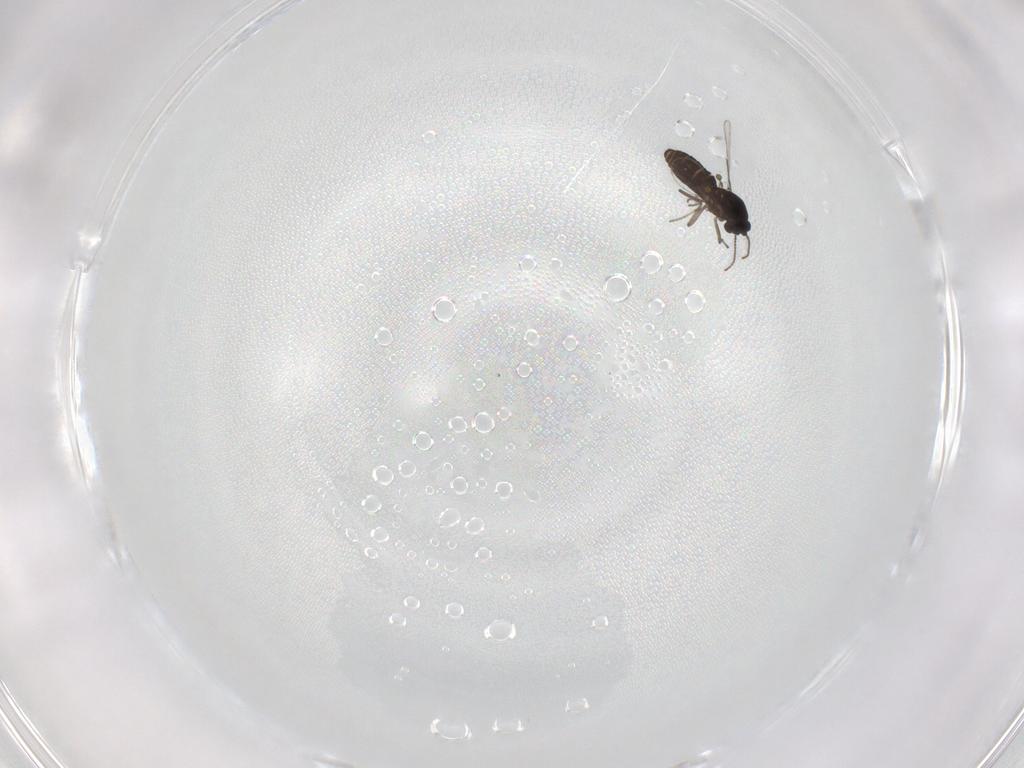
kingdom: Animalia
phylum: Arthropoda
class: Insecta
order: Diptera
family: Ceratopogonidae
